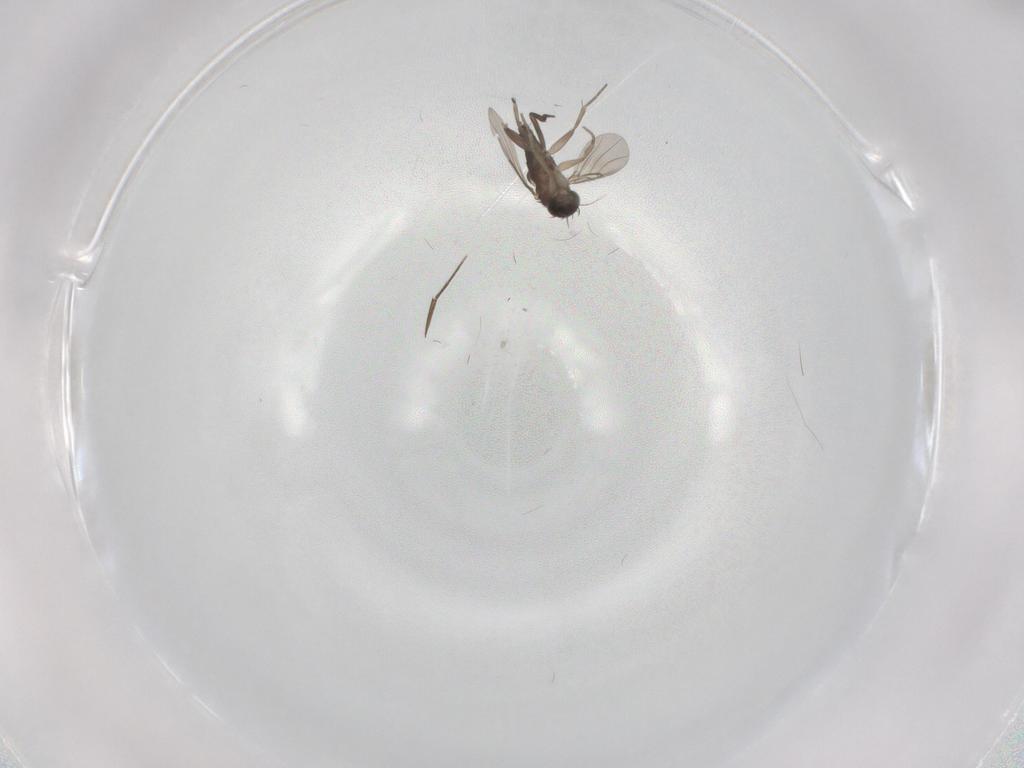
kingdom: Animalia
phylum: Arthropoda
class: Insecta
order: Diptera
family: Phoridae
